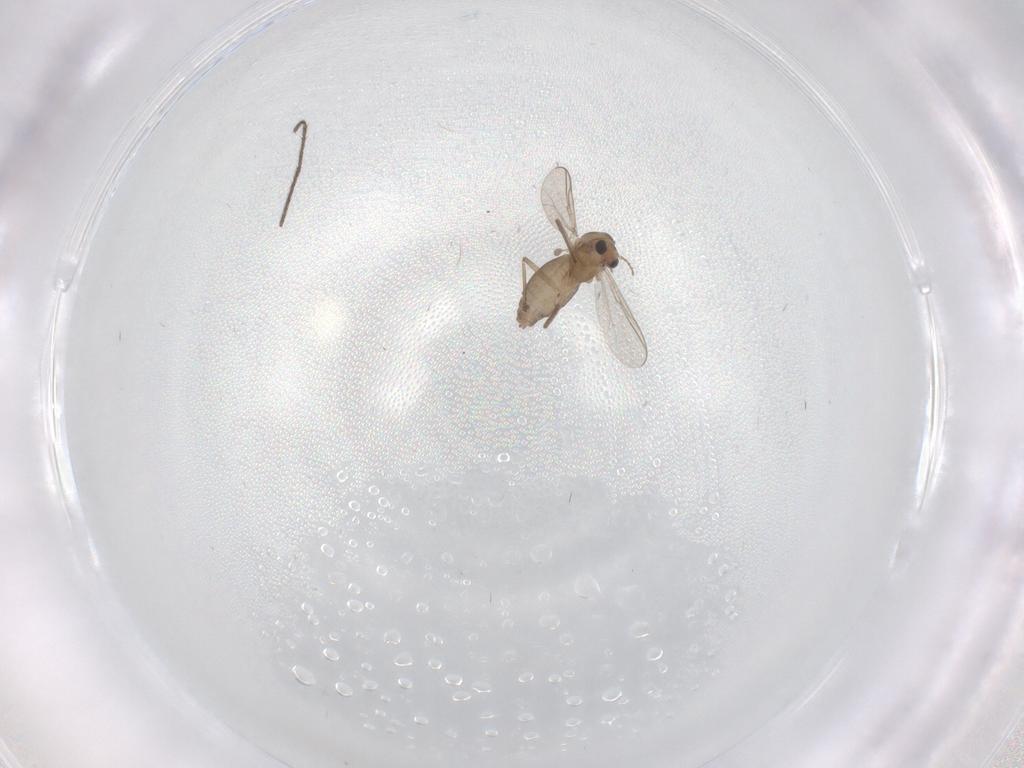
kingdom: Animalia
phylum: Arthropoda
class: Insecta
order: Diptera
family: Chironomidae
